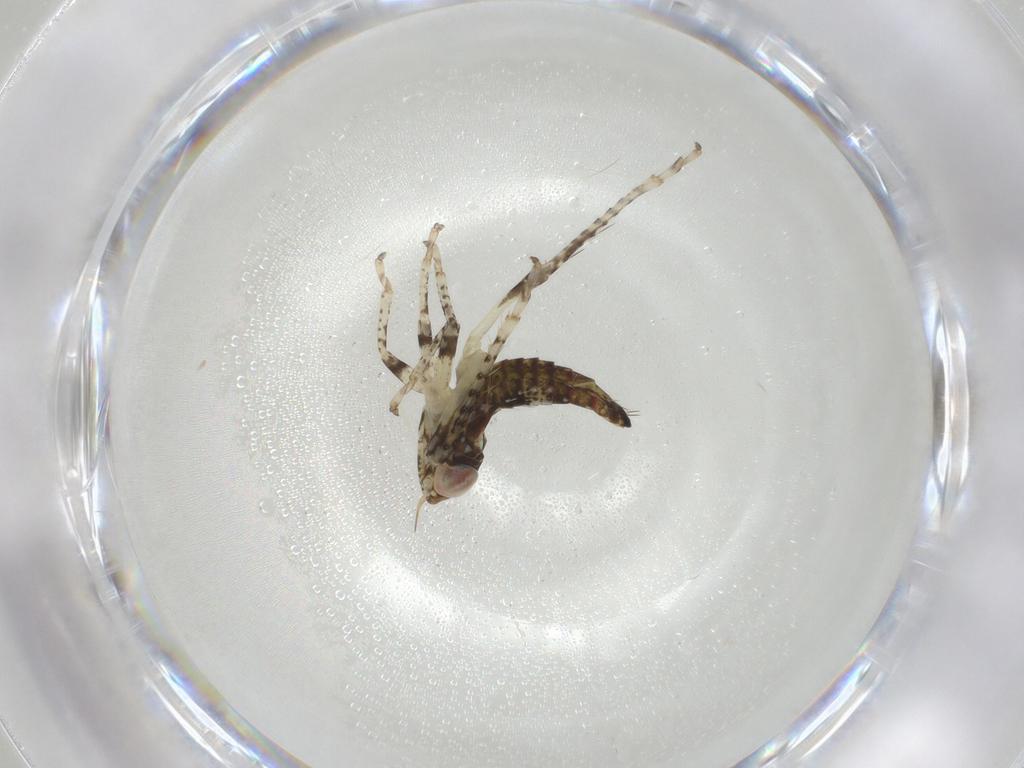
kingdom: Animalia
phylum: Arthropoda
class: Insecta
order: Hemiptera
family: Cicadellidae
